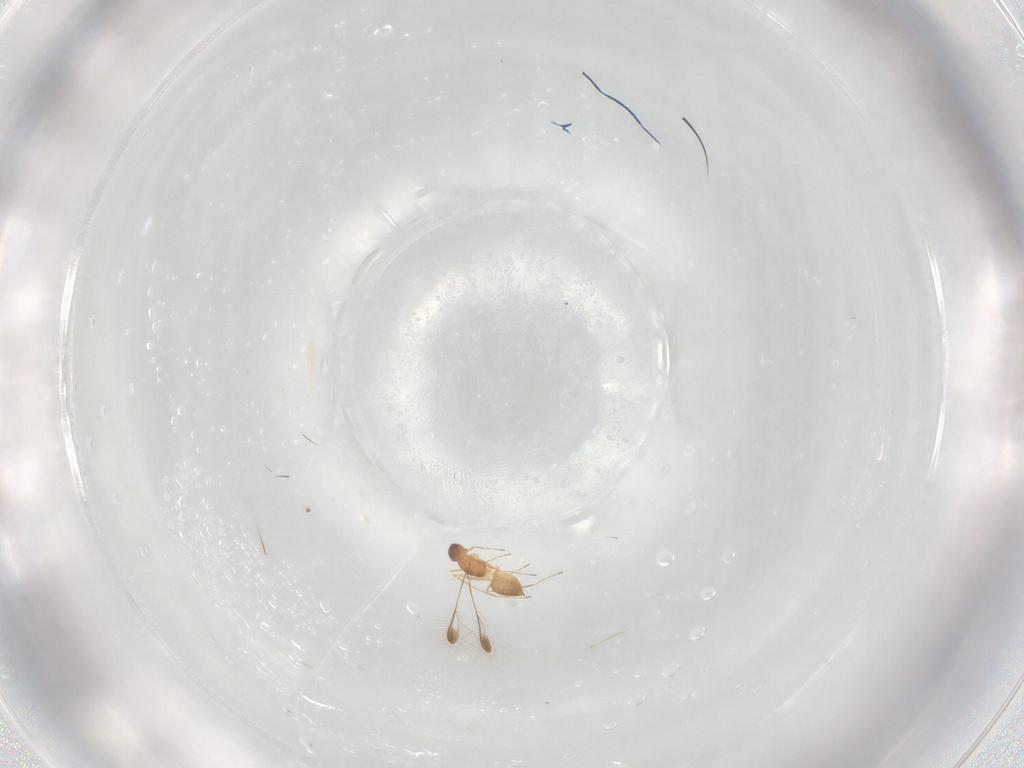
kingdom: Animalia
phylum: Arthropoda
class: Insecta
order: Hymenoptera
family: Mymaridae
